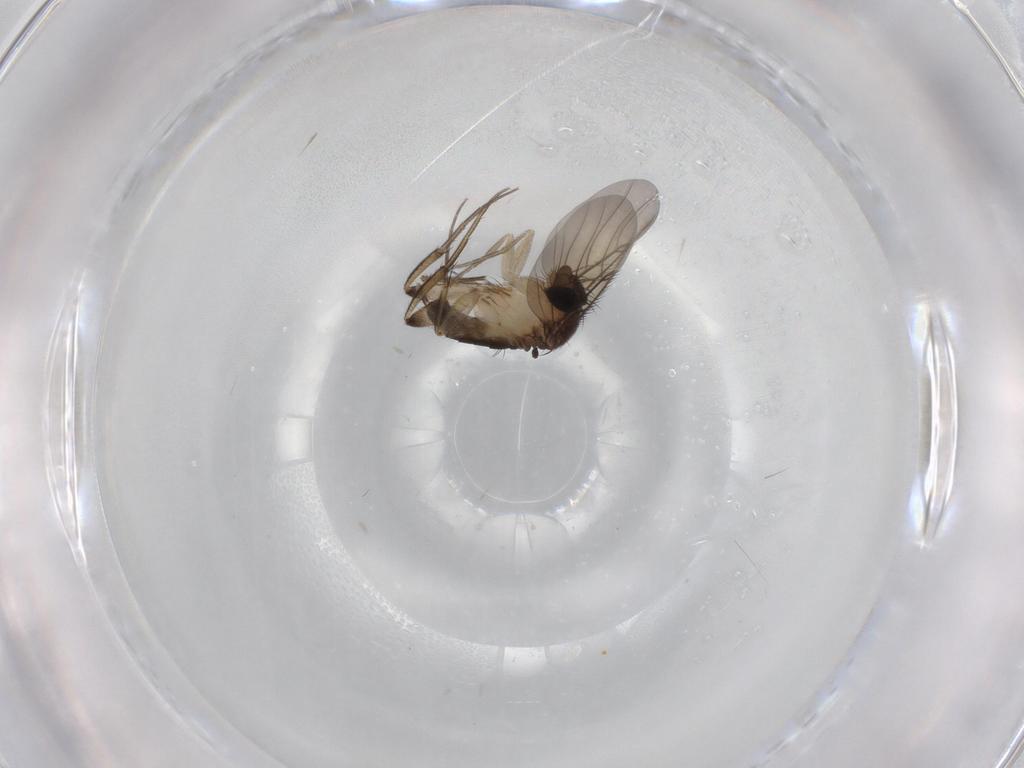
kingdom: Animalia
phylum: Arthropoda
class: Insecta
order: Diptera
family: Phoridae
